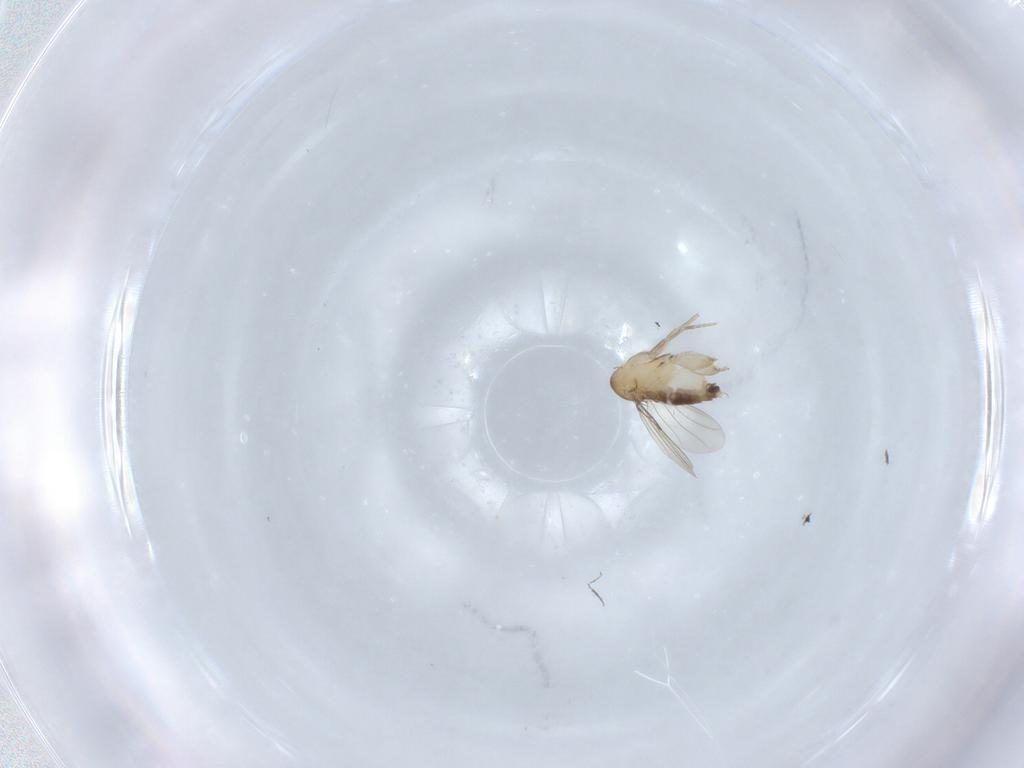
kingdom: Animalia
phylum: Arthropoda
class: Insecta
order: Diptera
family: Phoridae
